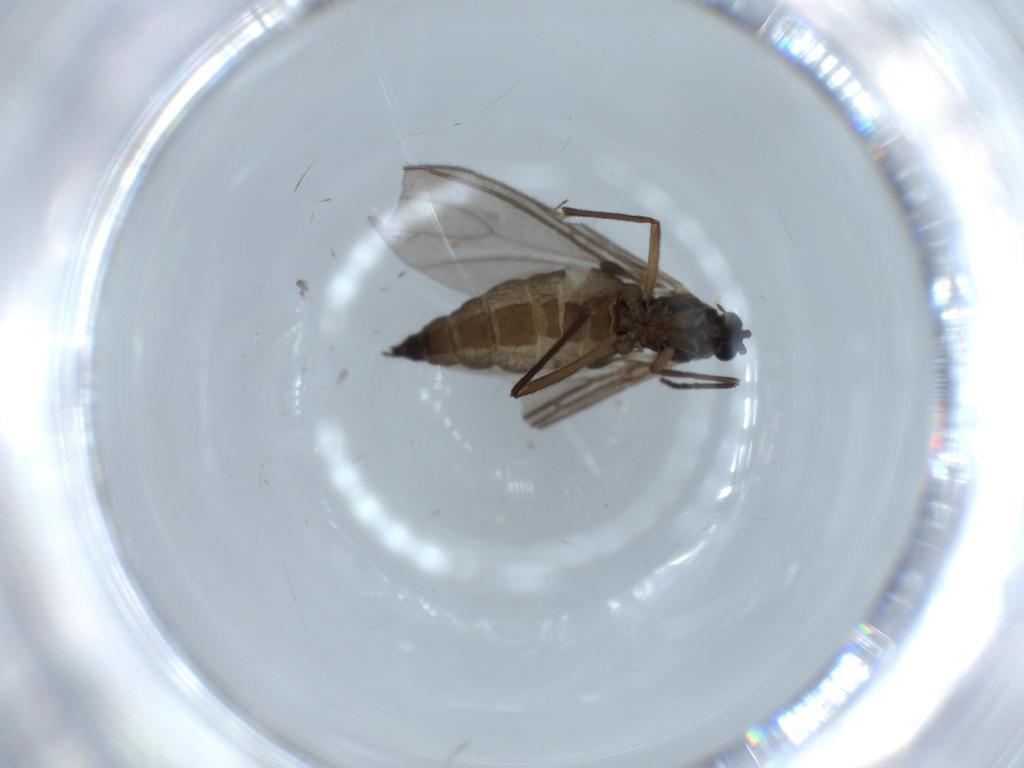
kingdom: Animalia
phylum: Arthropoda
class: Insecta
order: Diptera
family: Sciaridae
